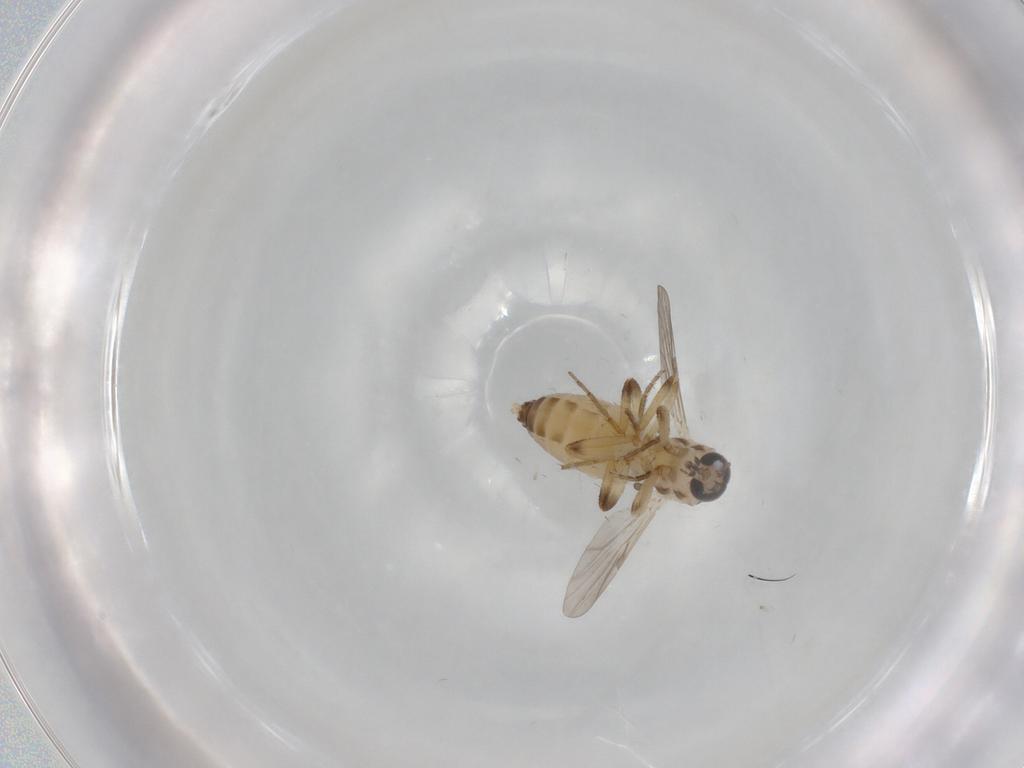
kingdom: Animalia
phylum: Arthropoda
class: Insecta
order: Diptera
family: Ceratopogonidae
